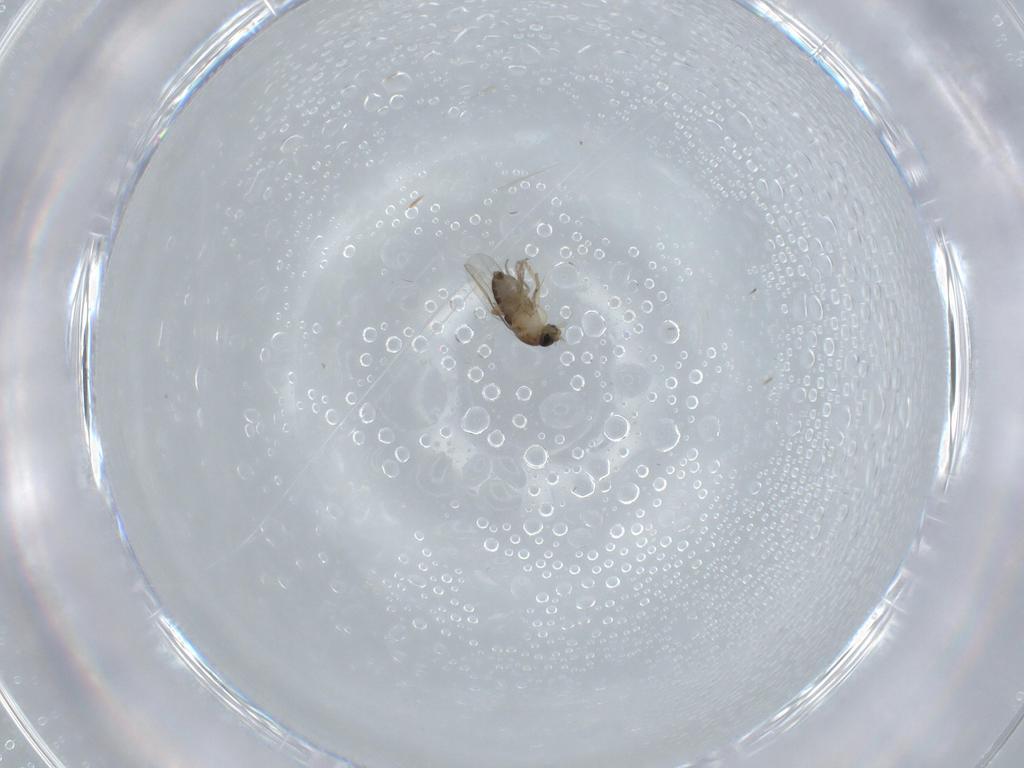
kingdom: Animalia
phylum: Arthropoda
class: Insecta
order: Diptera
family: Cecidomyiidae
